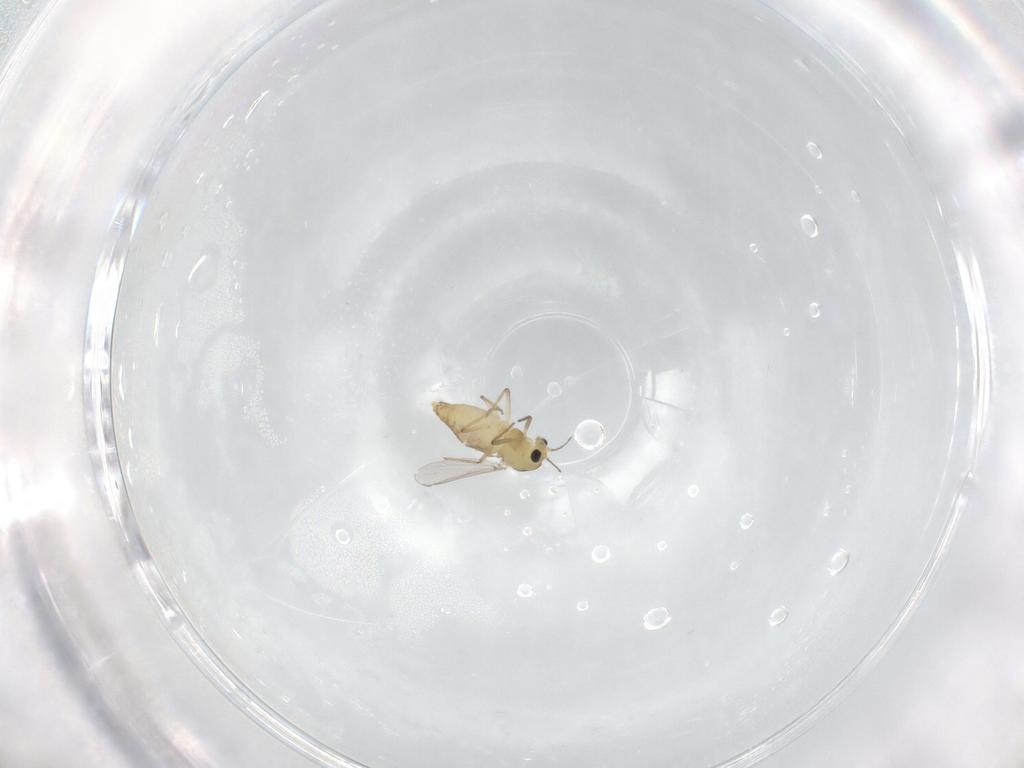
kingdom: Animalia
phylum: Arthropoda
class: Insecta
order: Diptera
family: Chironomidae
